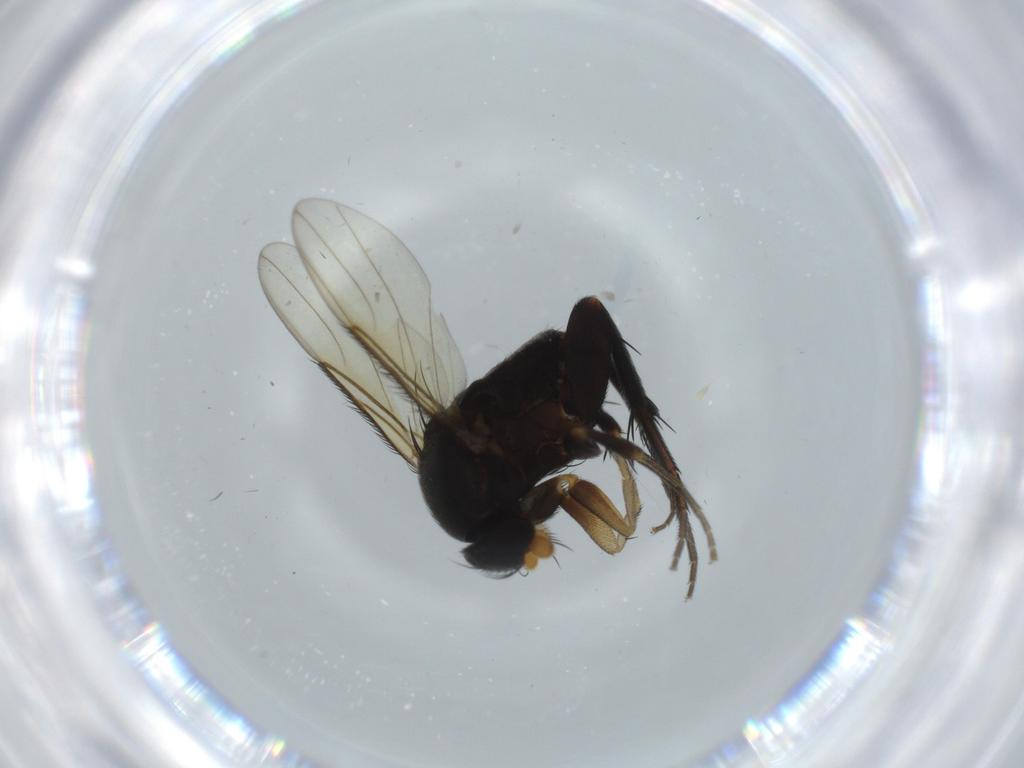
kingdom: Animalia
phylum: Arthropoda
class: Insecta
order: Diptera
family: Phoridae
